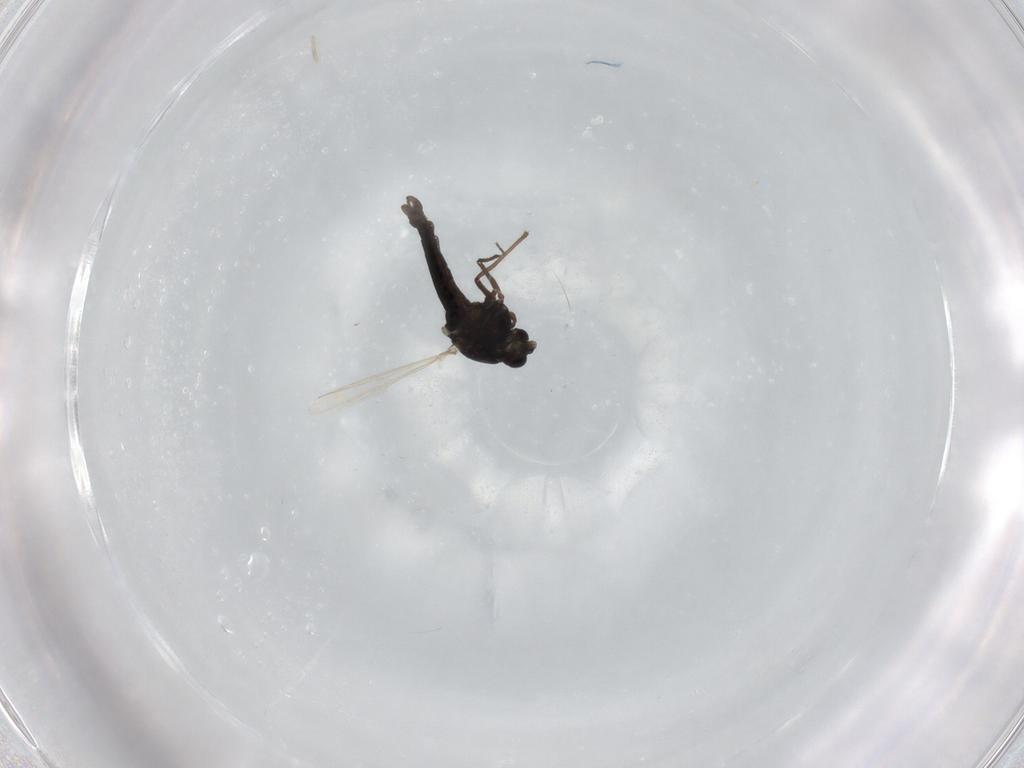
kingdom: Animalia
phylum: Arthropoda
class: Insecta
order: Diptera
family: Chironomidae
